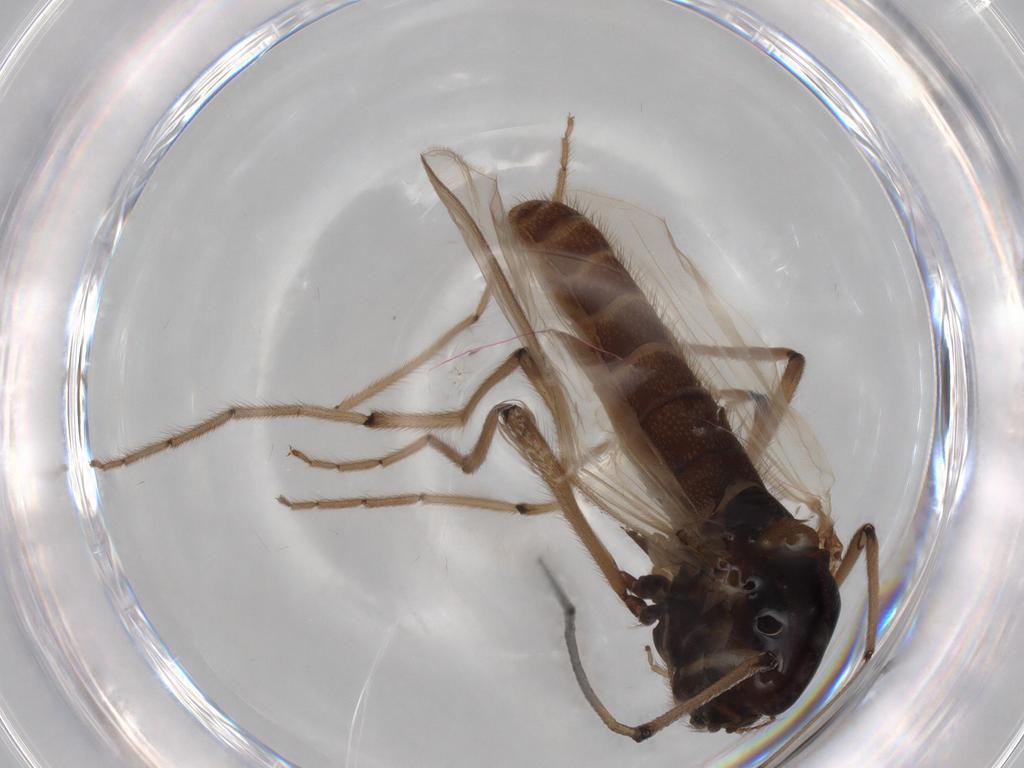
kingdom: Animalia
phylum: Arthropoda
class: Insecta
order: Diptera
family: Chironomidae
